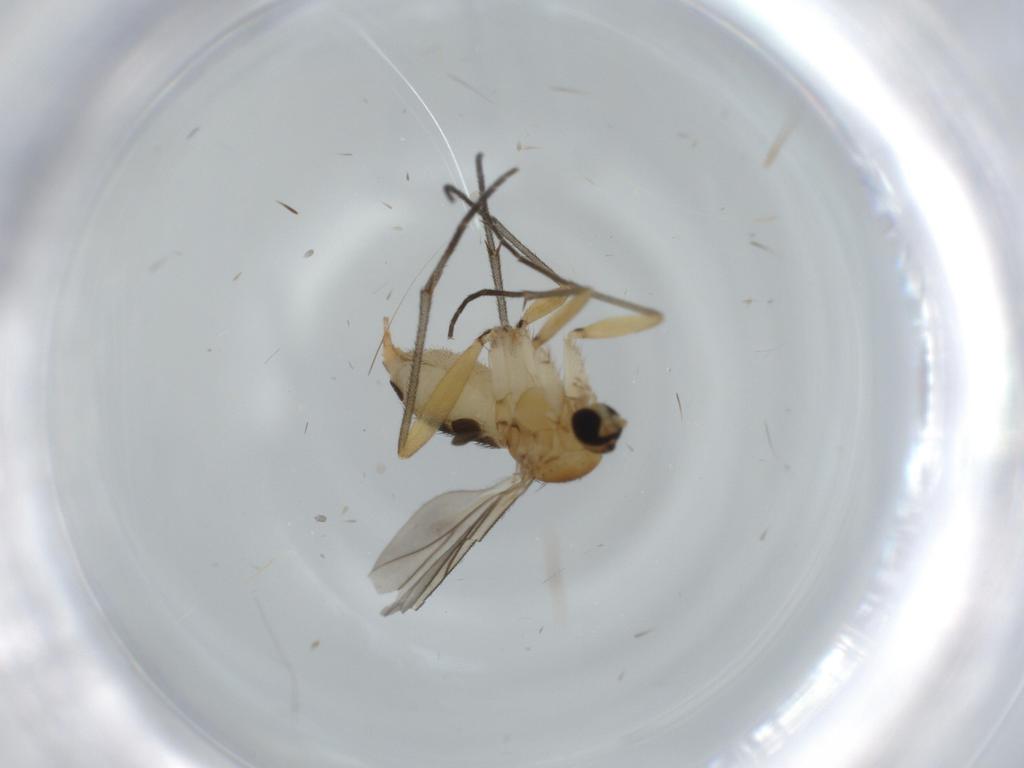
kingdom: Animalia
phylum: Arthropoda
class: Insecta
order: Diptera
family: Sciaridae
